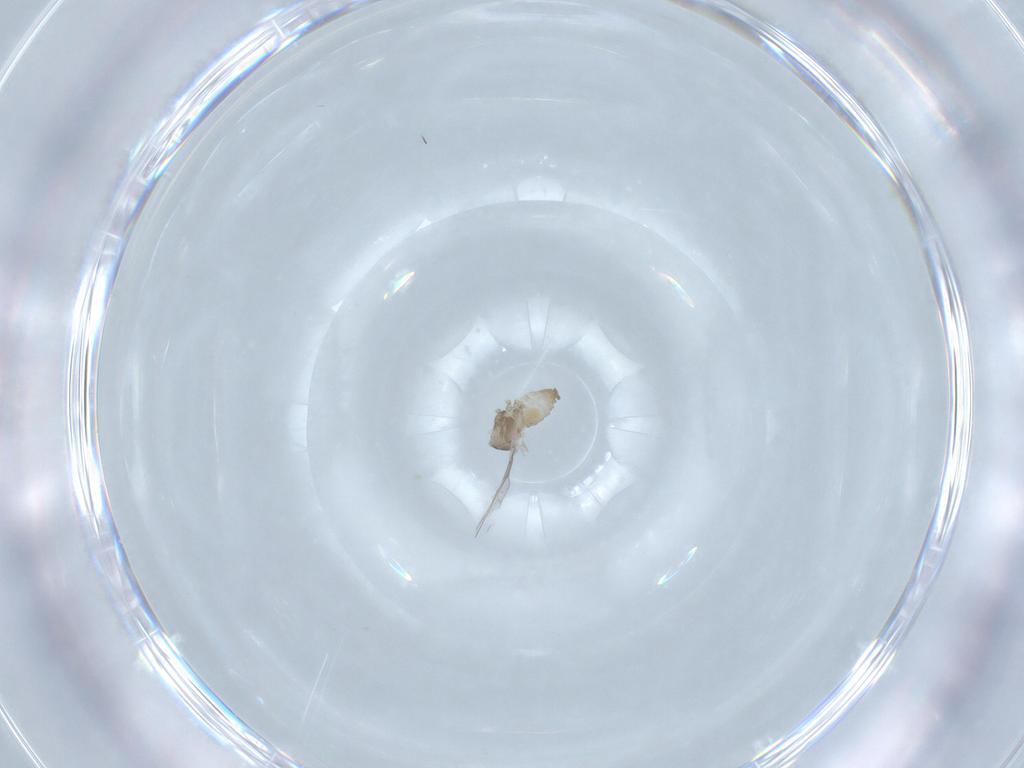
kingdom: Animalia
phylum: Arthropoda
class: Insecta
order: Diptera
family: Cecidomyiidae
